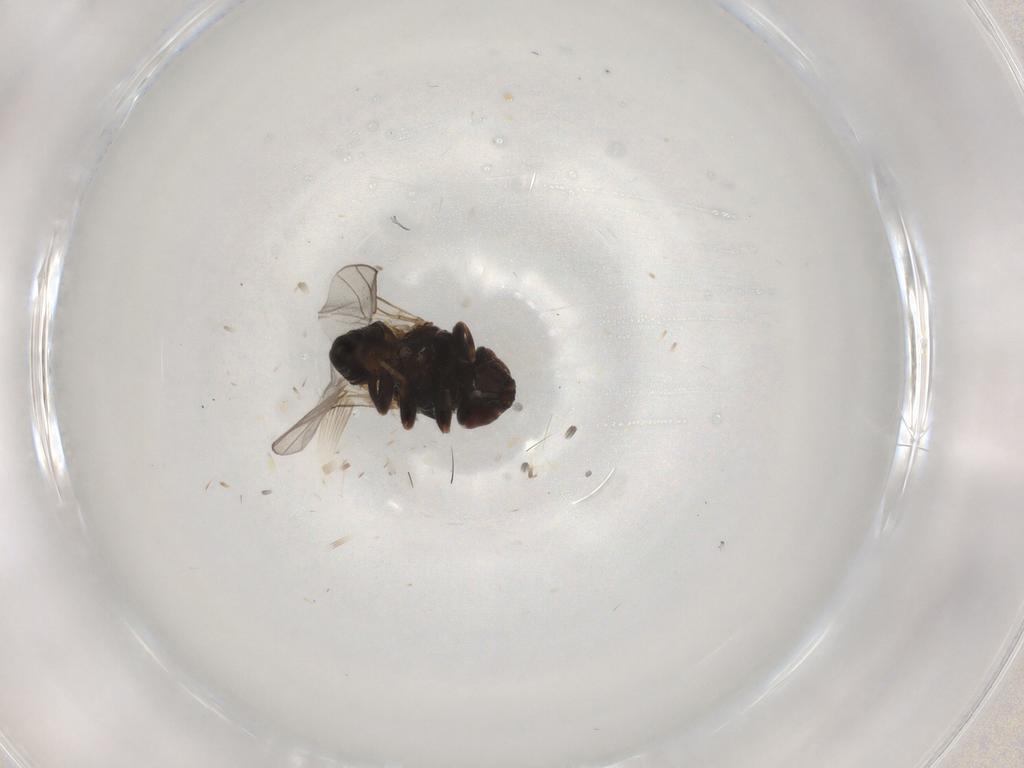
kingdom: Animalia
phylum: Arthropoda
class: Insecta
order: Diptera
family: Chloropidae
